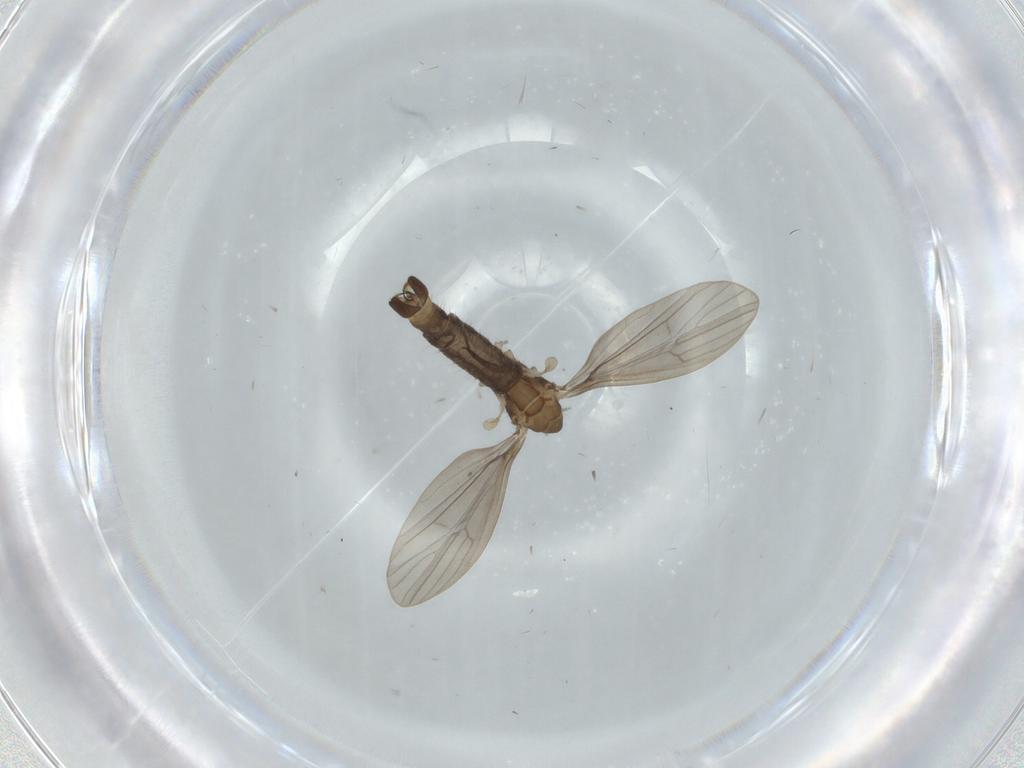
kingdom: Animalia
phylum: Arthropoda
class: Insecta
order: Diptera
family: Limoniidae
